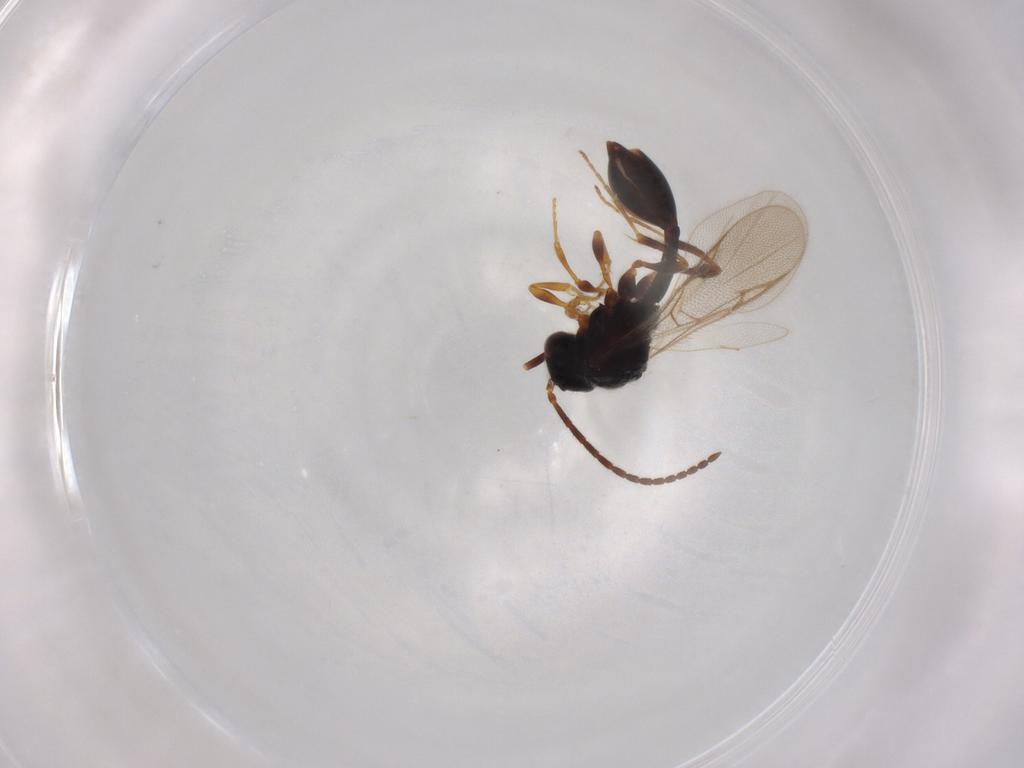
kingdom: Animalia
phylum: Arthropoda
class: Insecta
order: Hymenoptera
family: Diapriidae
